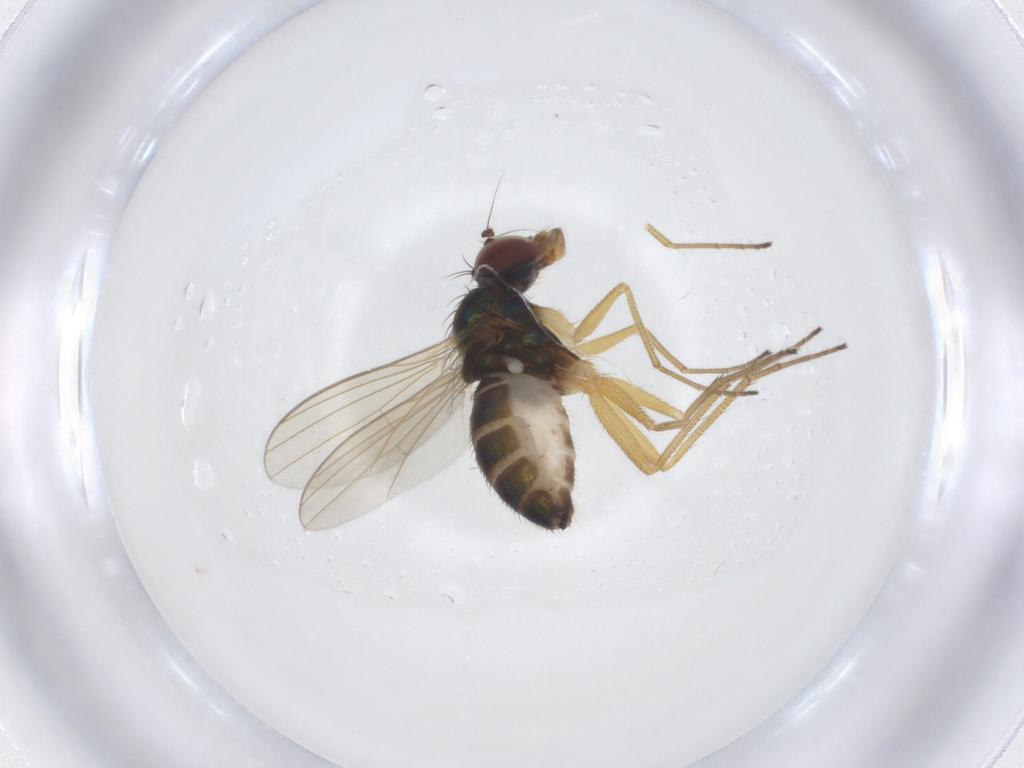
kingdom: Animalia
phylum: Arthropoda
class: Insecta
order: Diptera
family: Dolichopodidae
